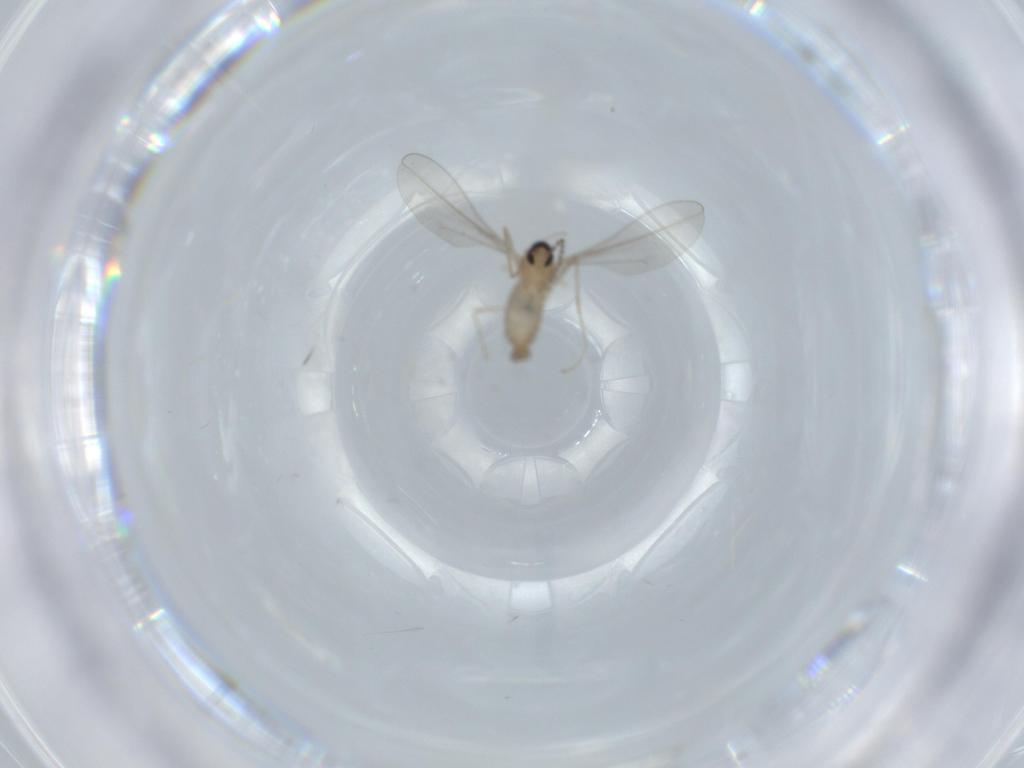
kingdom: Animalia
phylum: Arthropoda
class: Insecta
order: Diptera
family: Cecidomyiidae
